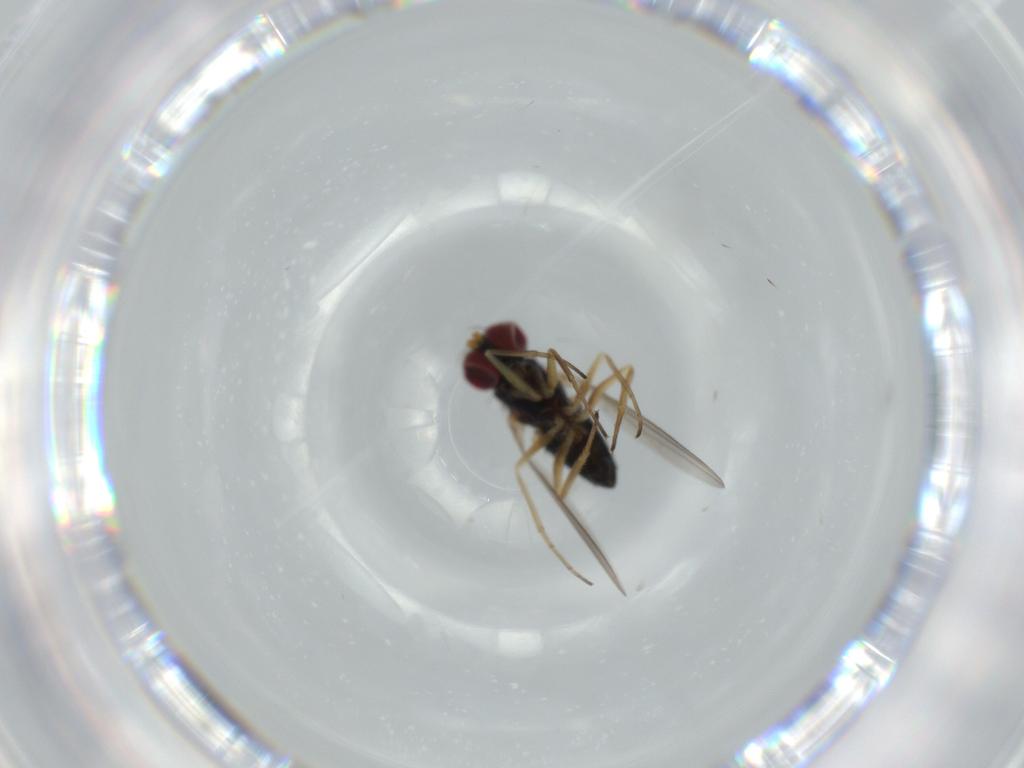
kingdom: Animalia
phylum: Arthropoda
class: Insecta
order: Diptera
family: Dolichopodidae
